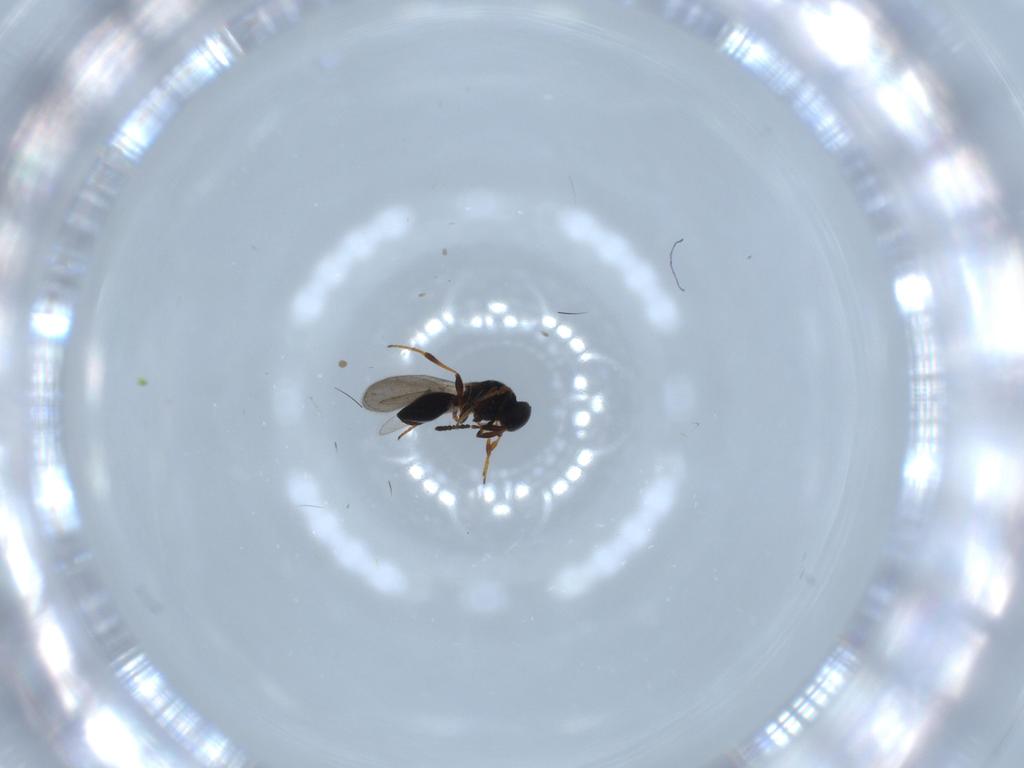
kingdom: Animalia
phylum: Arthropoda
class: Insecta
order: Hymenoptera
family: Platygastridae
